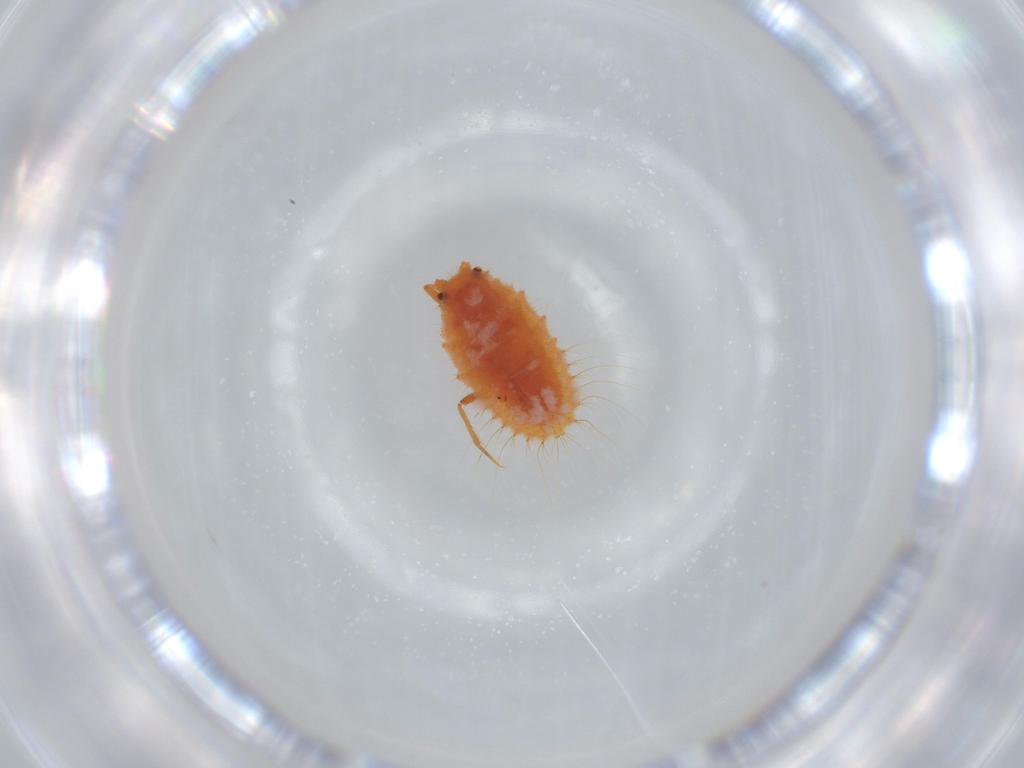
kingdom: Animalia
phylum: Arthropoda
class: Insecta
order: Hemiptera
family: Coccoidea_incertae_sedis
